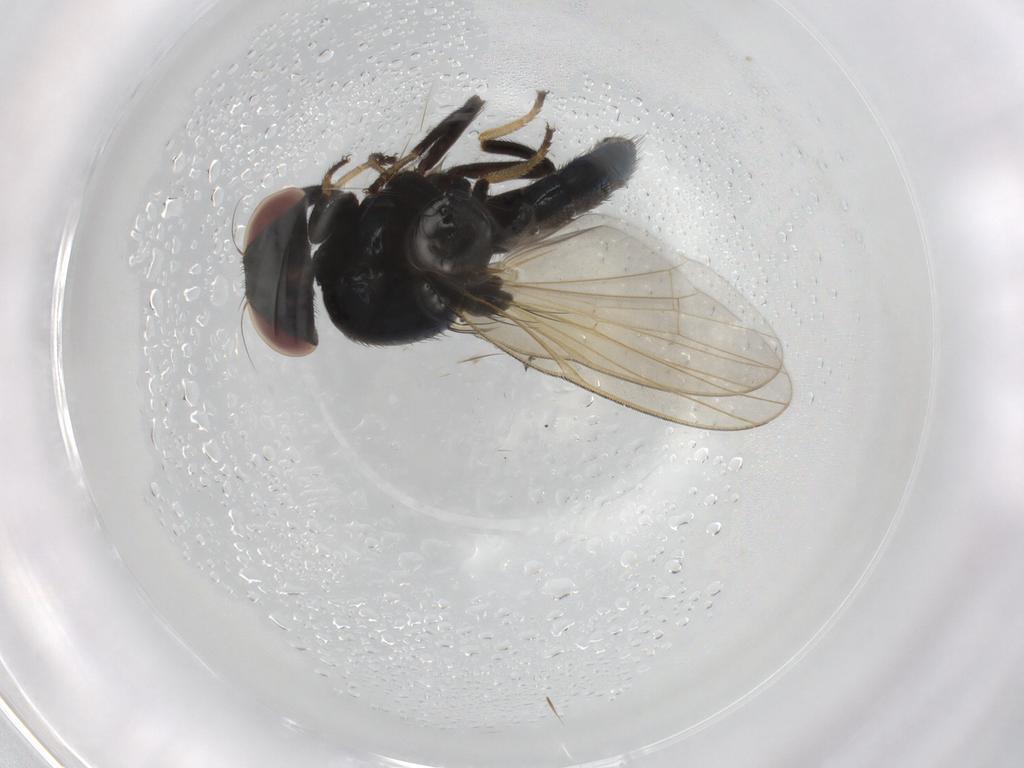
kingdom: Animalia
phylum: Arthropoda
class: Insecta
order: Diptera
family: Lonchaeidae
